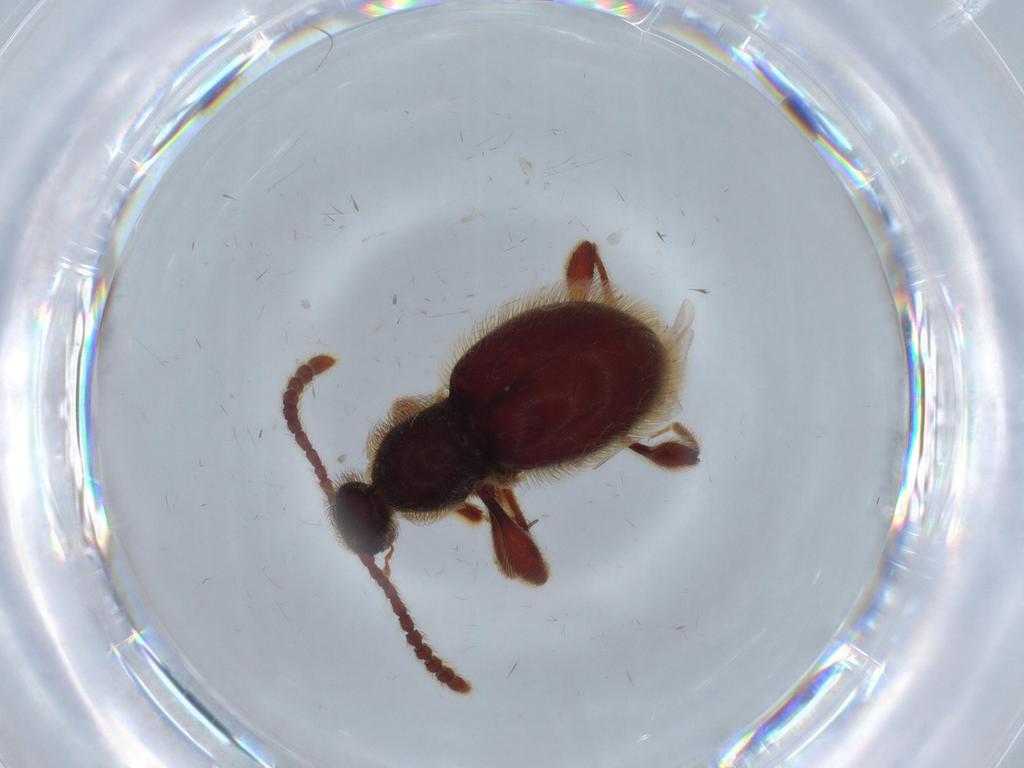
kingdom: Animalia
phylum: Arthropoda
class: Insecta
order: Coleoptera
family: Staphylinidae
